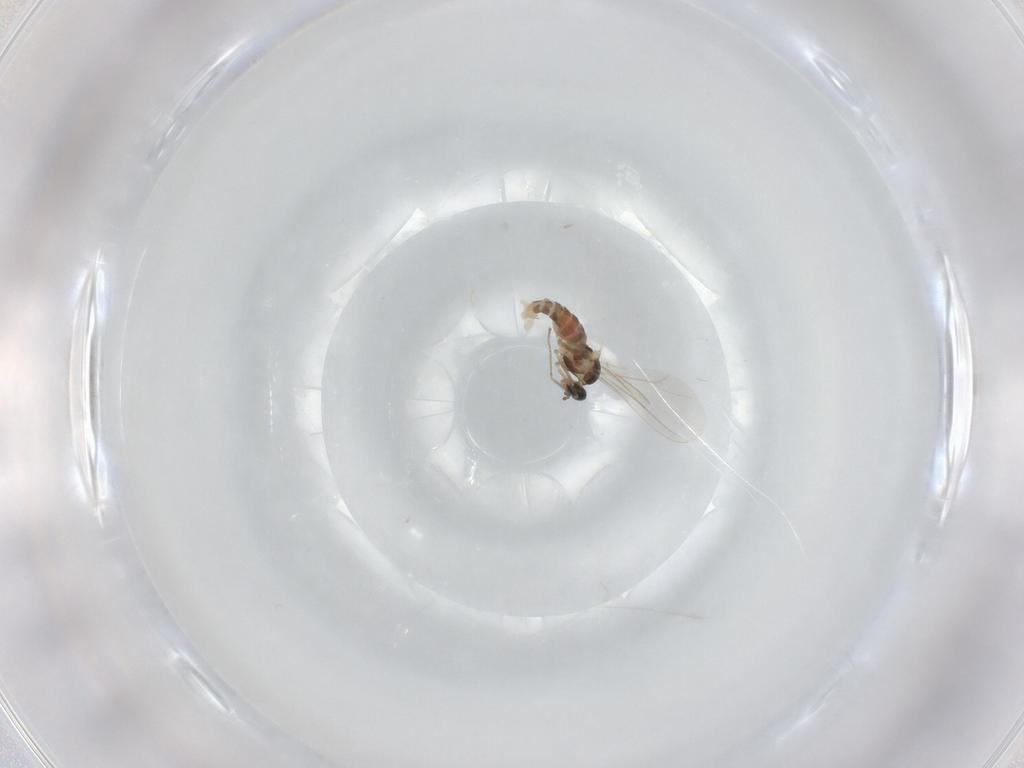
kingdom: Animalia
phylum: Arthropoda
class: Insecta
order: Diptera
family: Cecidomyiidae
